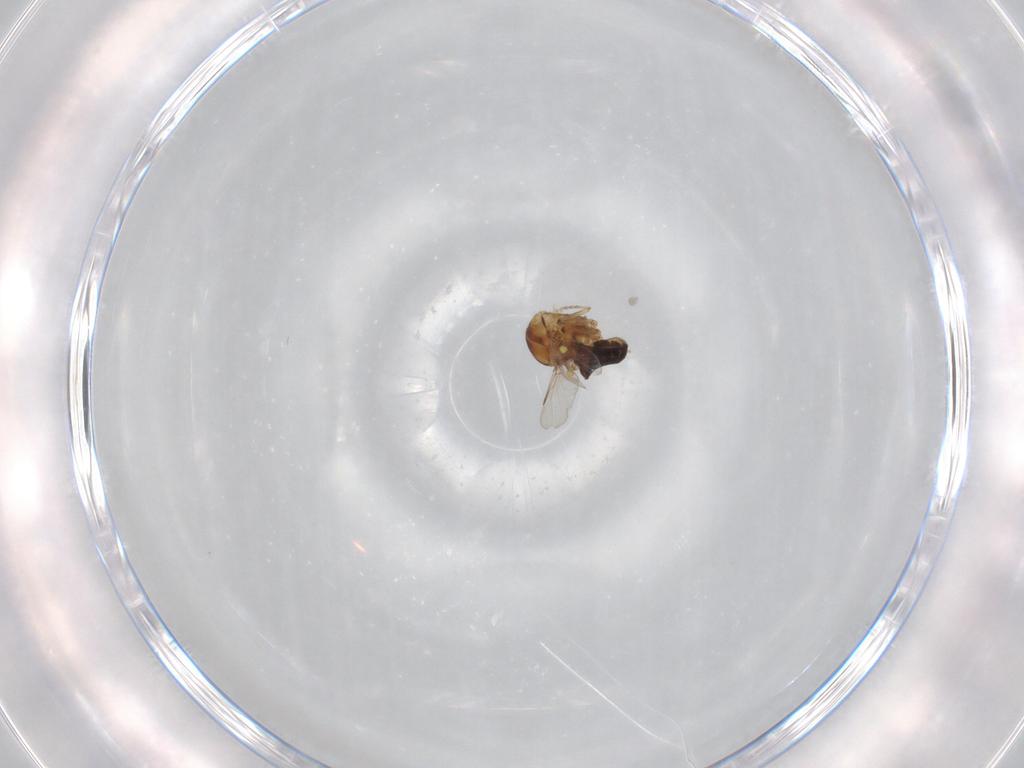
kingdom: Animalia
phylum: Arthropoda
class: Insecta
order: Diptera
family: Ceratopogonidae
